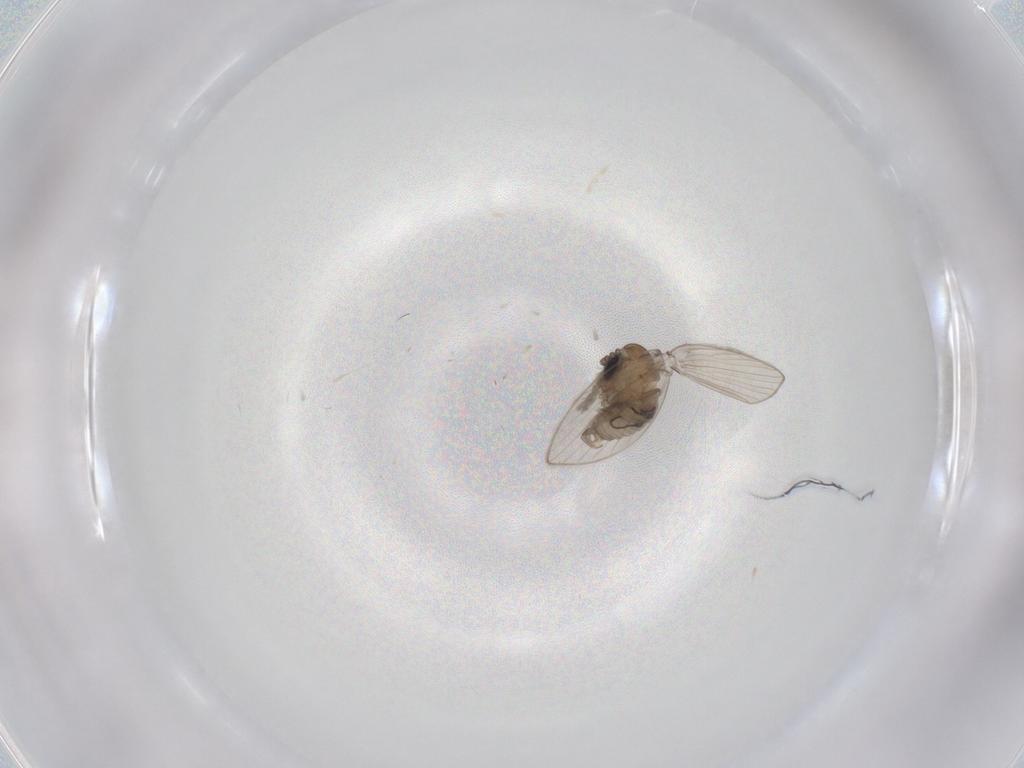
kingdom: Animalia
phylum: Arthropoda
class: Insecta
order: Diptera
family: Psychodidae
